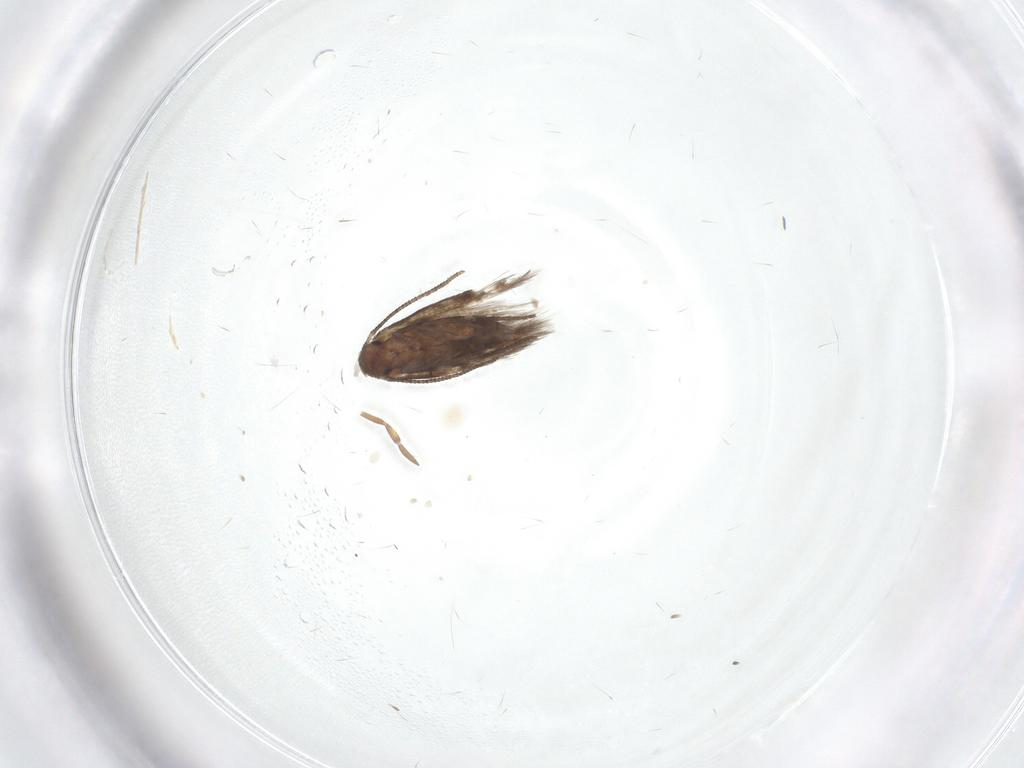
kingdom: Animalia
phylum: Arthropoda
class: Insecta
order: Lepidoptera
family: Lyonetiidae
